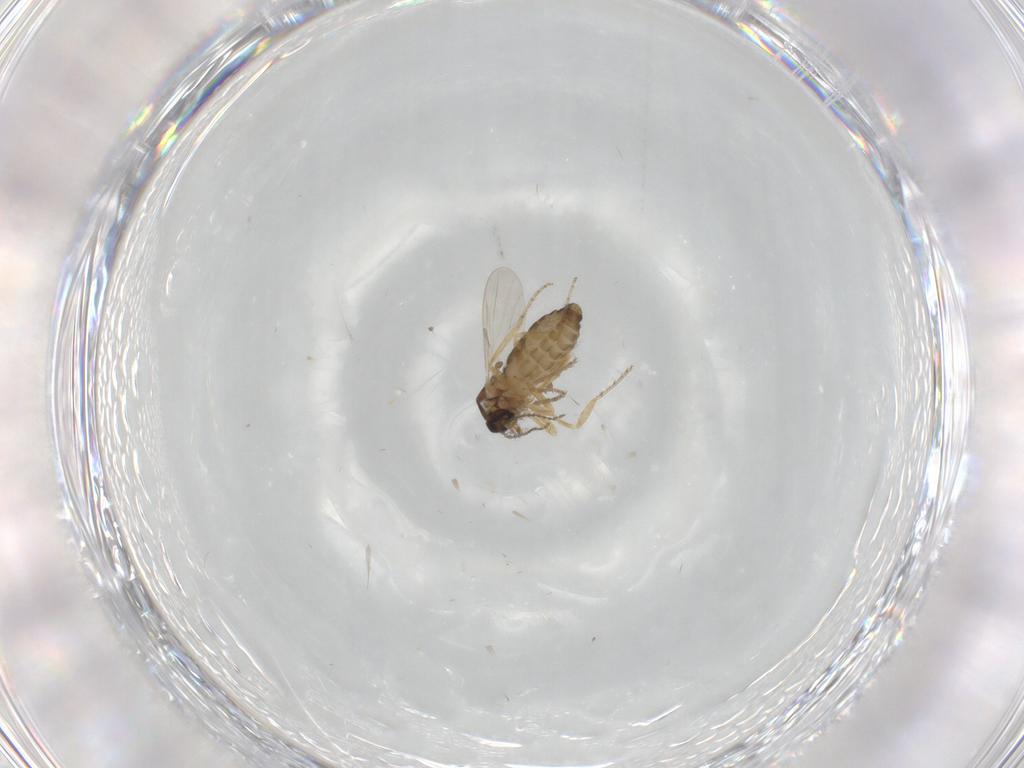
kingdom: Animalia
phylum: Arthropoda
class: Insecta
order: Diptera
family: Ceratopogonidae
